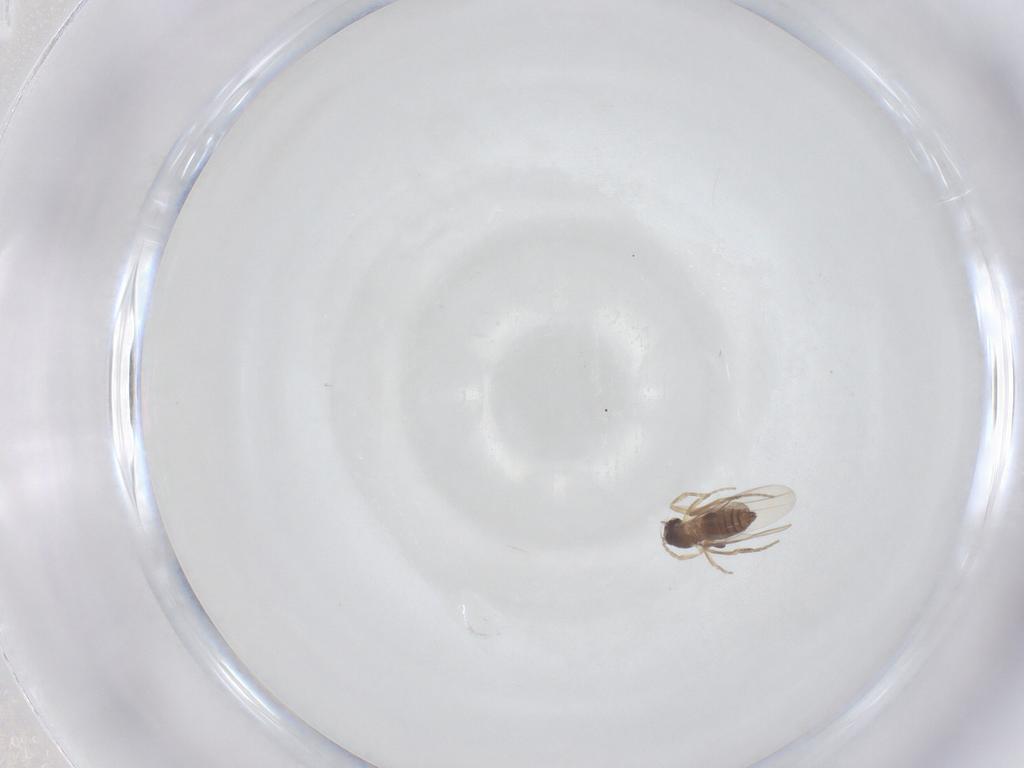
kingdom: Animalia
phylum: Arthropoda
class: Insecta
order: Diptera
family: Phoridae
